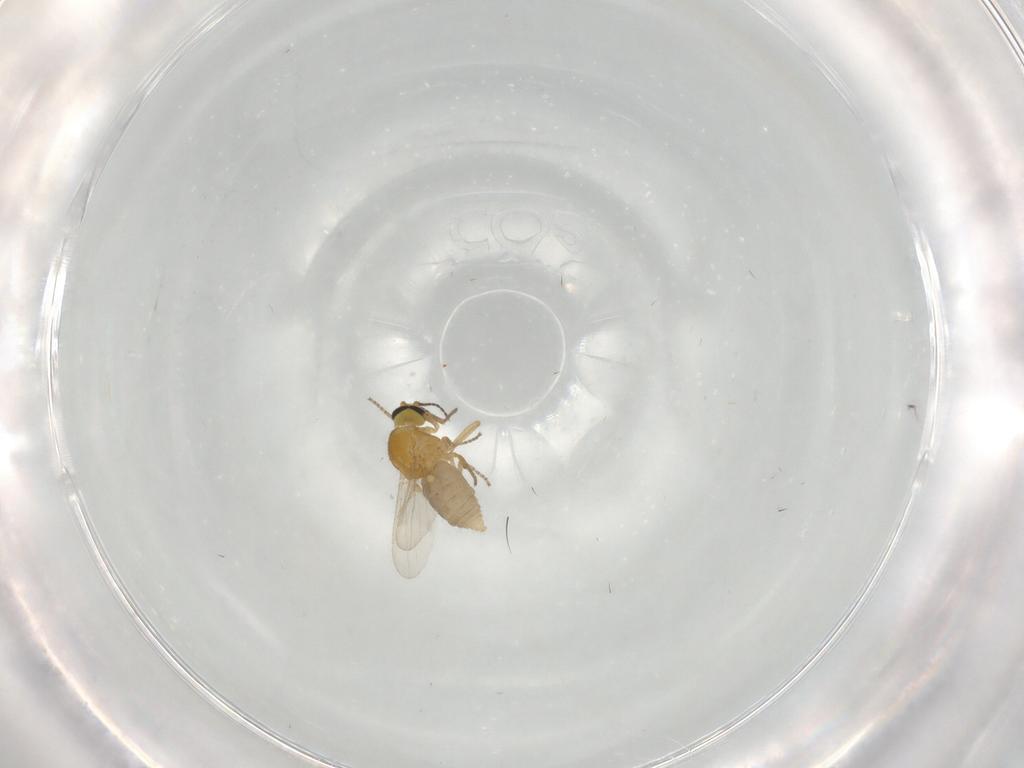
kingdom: Animalia
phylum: Arthropoda
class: Insecta
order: Diptera
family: Ceratopogonidae
